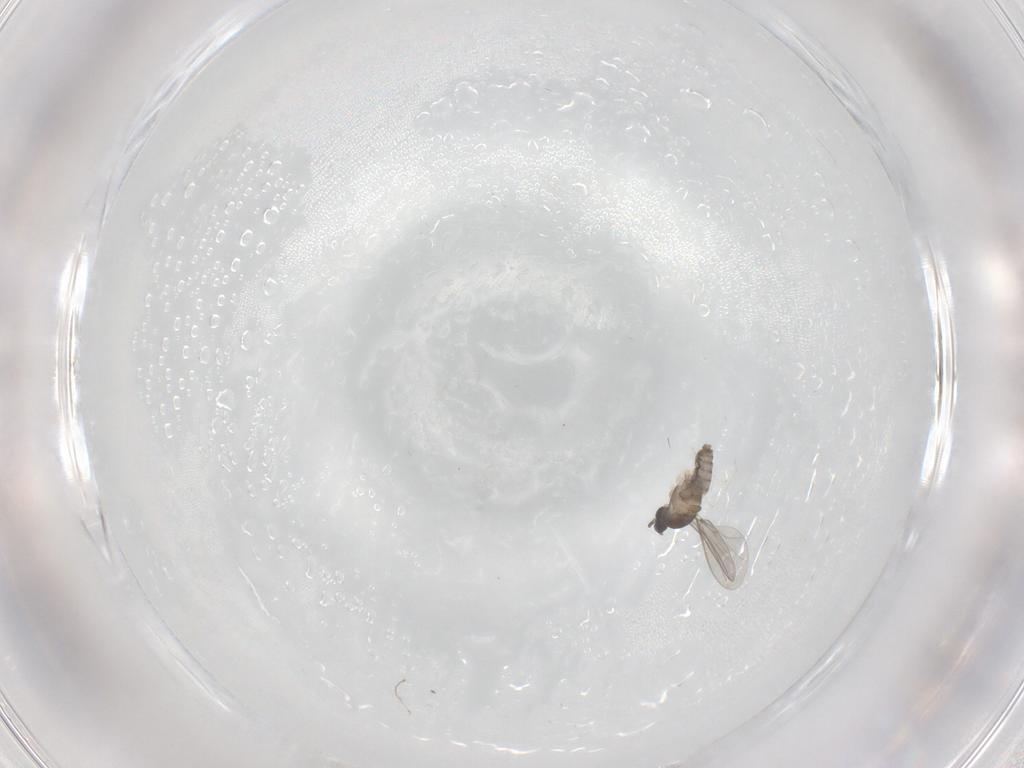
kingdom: Animalia
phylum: Arthropoda
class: Insecta
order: Diptera
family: Cecidomyiidae
